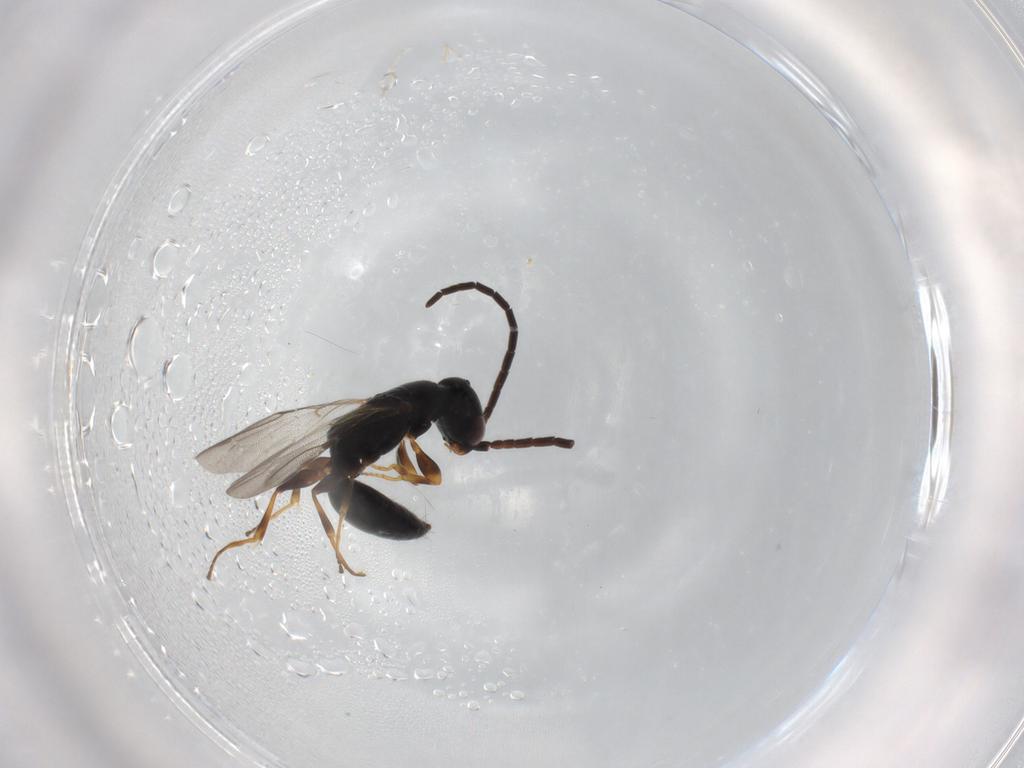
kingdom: Animalia
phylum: Arthropoda
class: Insecta
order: Hymenoptera
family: Bethylidae
